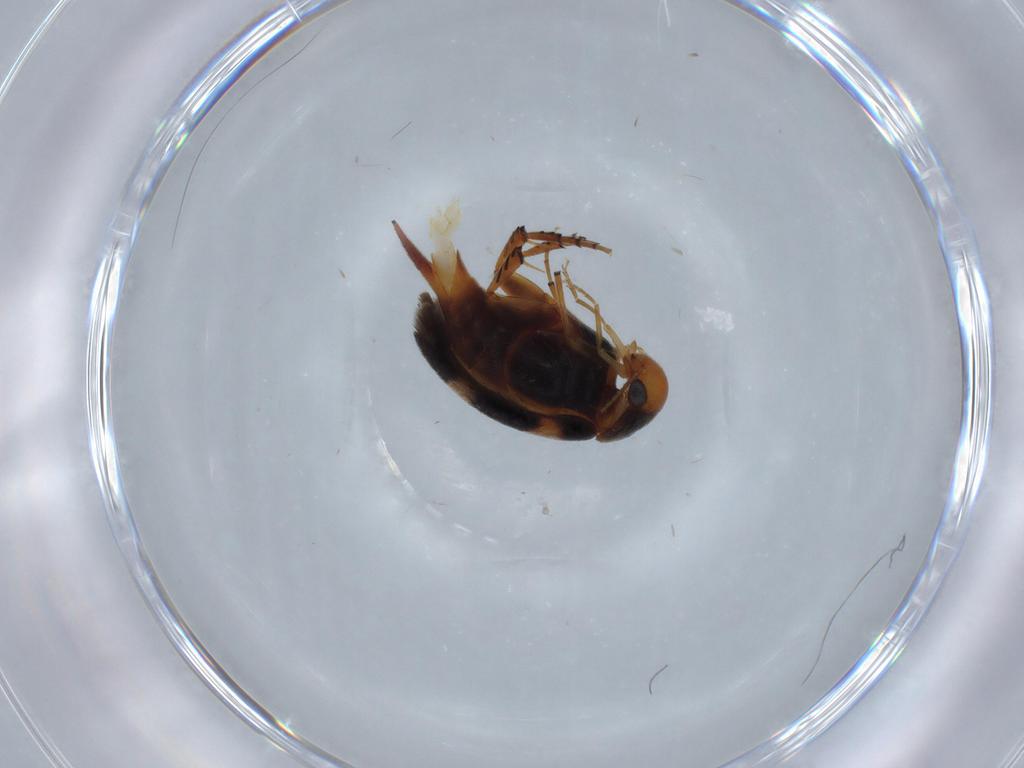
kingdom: Animalia
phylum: Arthropoda
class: Insecta
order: Coleoptera
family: Mordellidae
